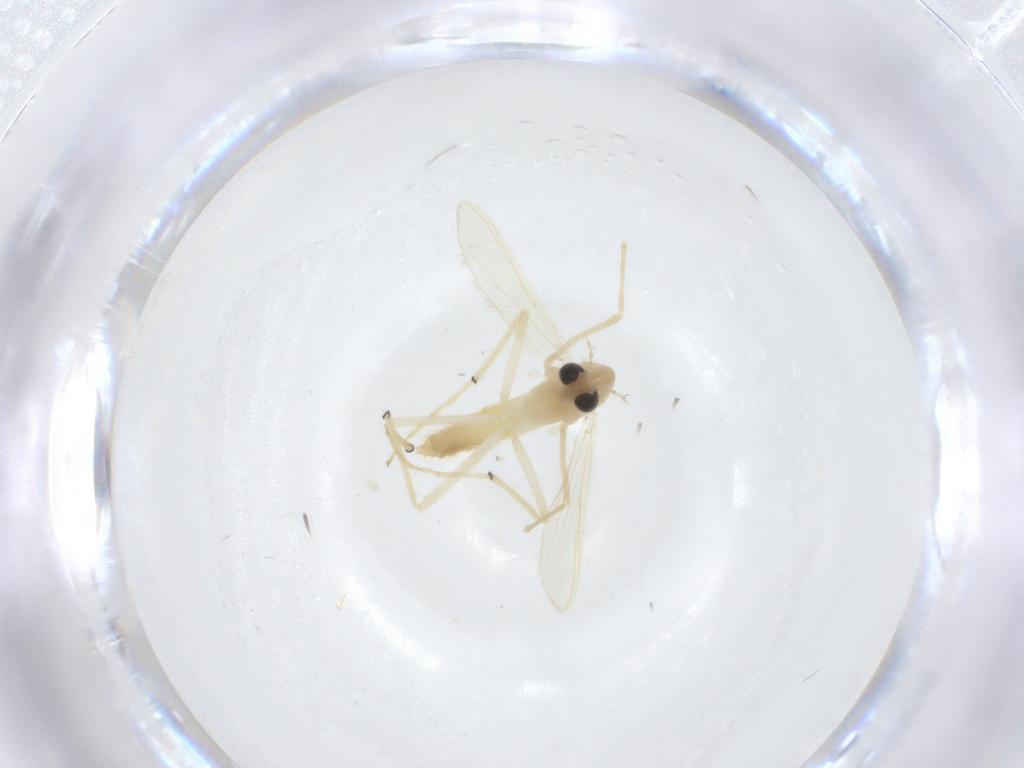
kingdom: Animalia
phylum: Arthropoda
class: Insecta
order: Diptera
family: Chironomidae
